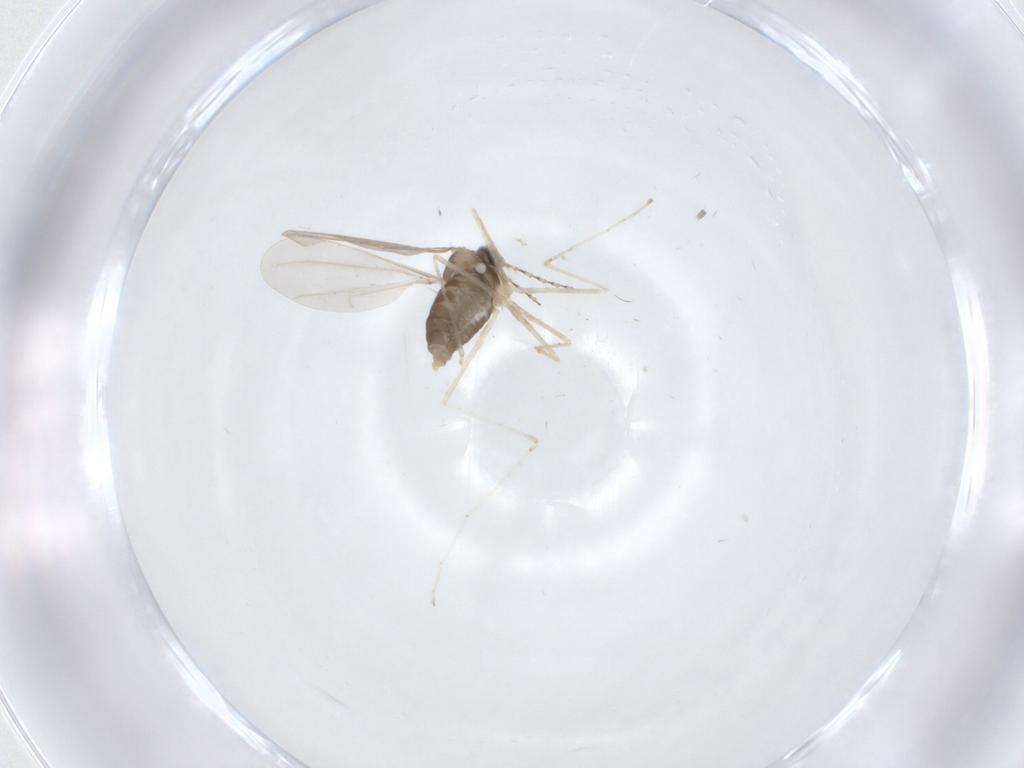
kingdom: Animalia
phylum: Arthropoda
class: Insecta
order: Diptera
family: Cecidomyiidae
